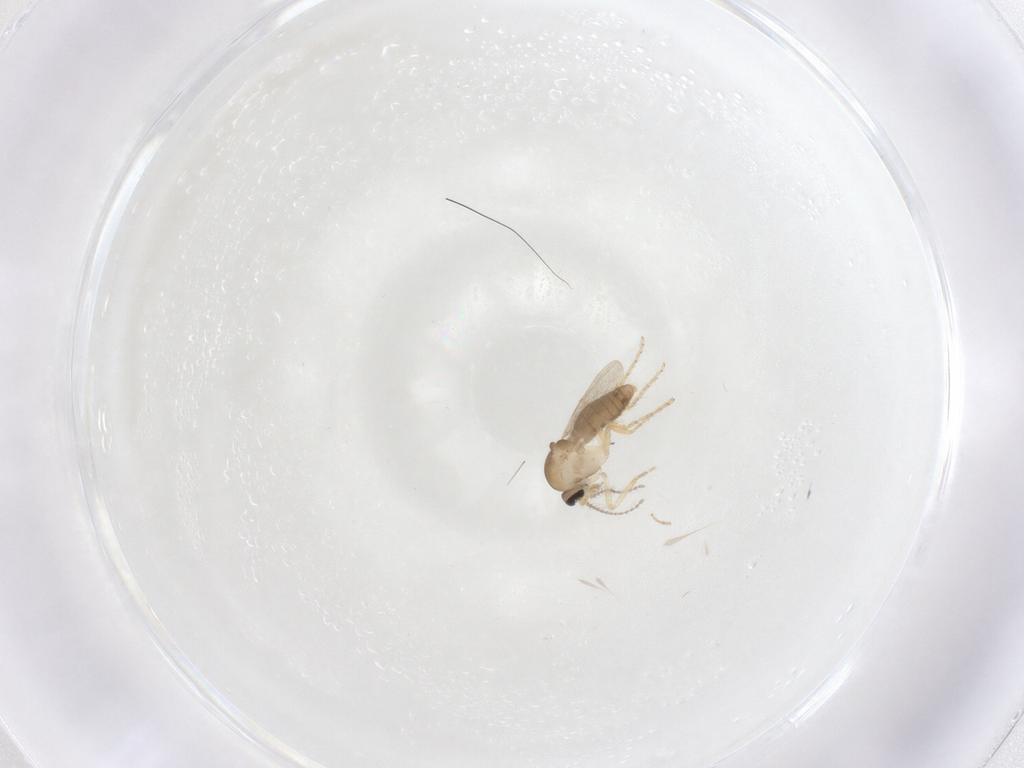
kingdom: Animalia
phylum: Arthropoda
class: Insecta
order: Diptera
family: Ceratopogonidae
